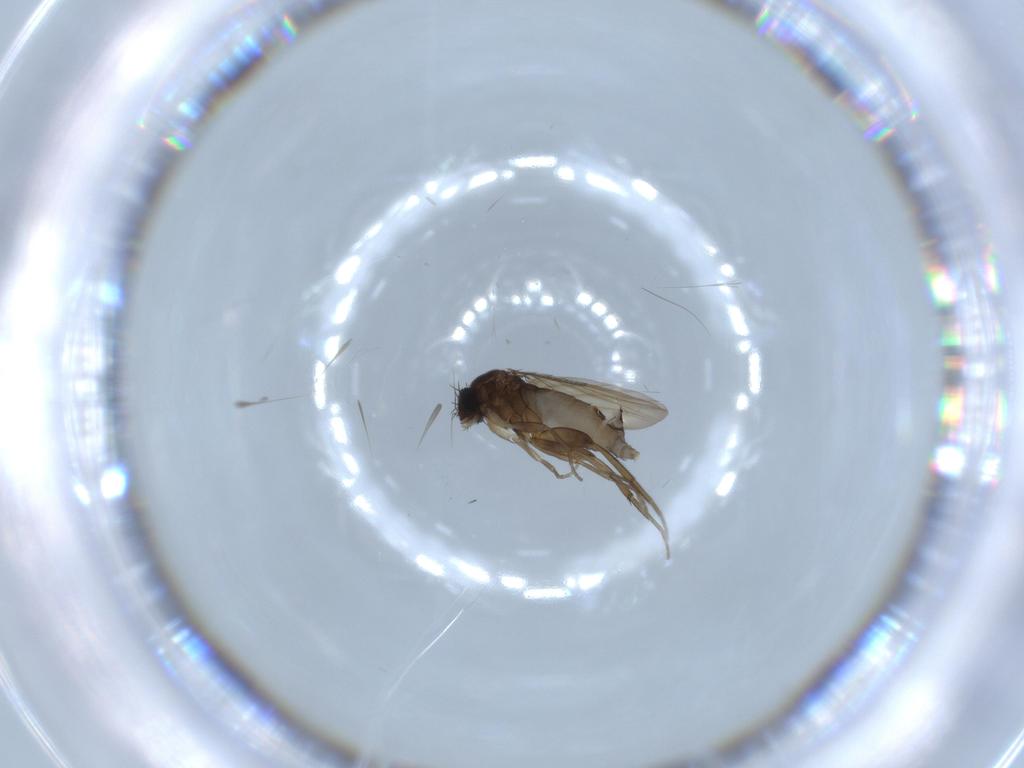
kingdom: Animalia
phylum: Arthropoda
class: Insecta
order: Diptera
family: Phoridae
